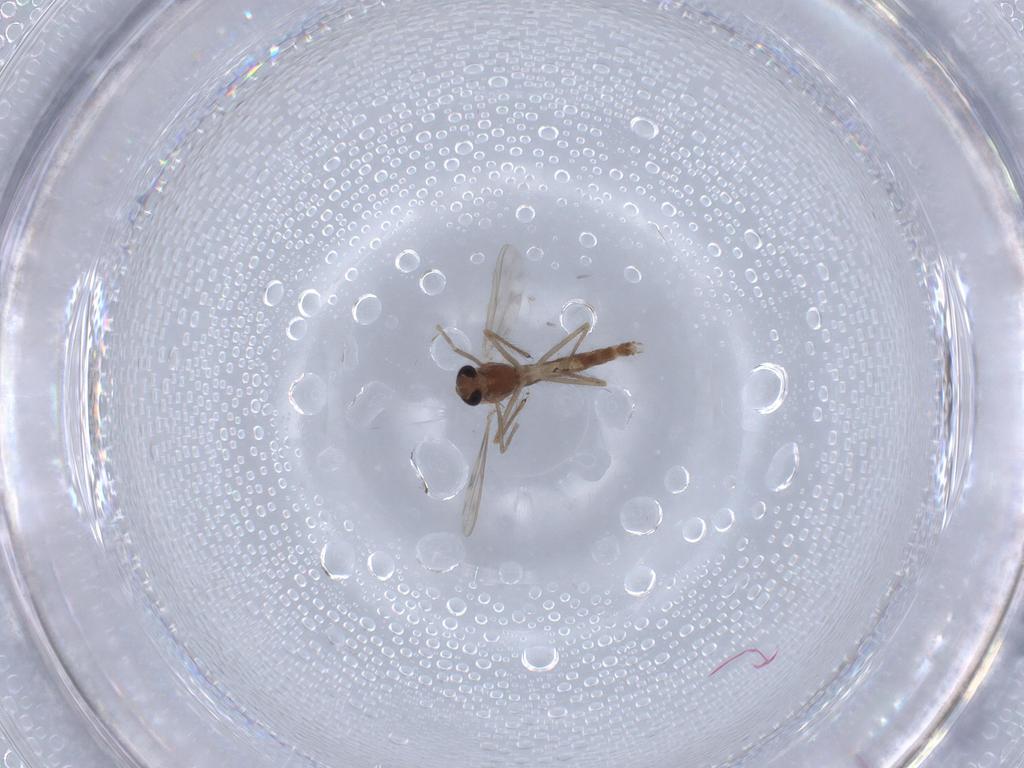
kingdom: Animalia
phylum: Arthropoda
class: Insecta
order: Diptera
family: Chironomidae
